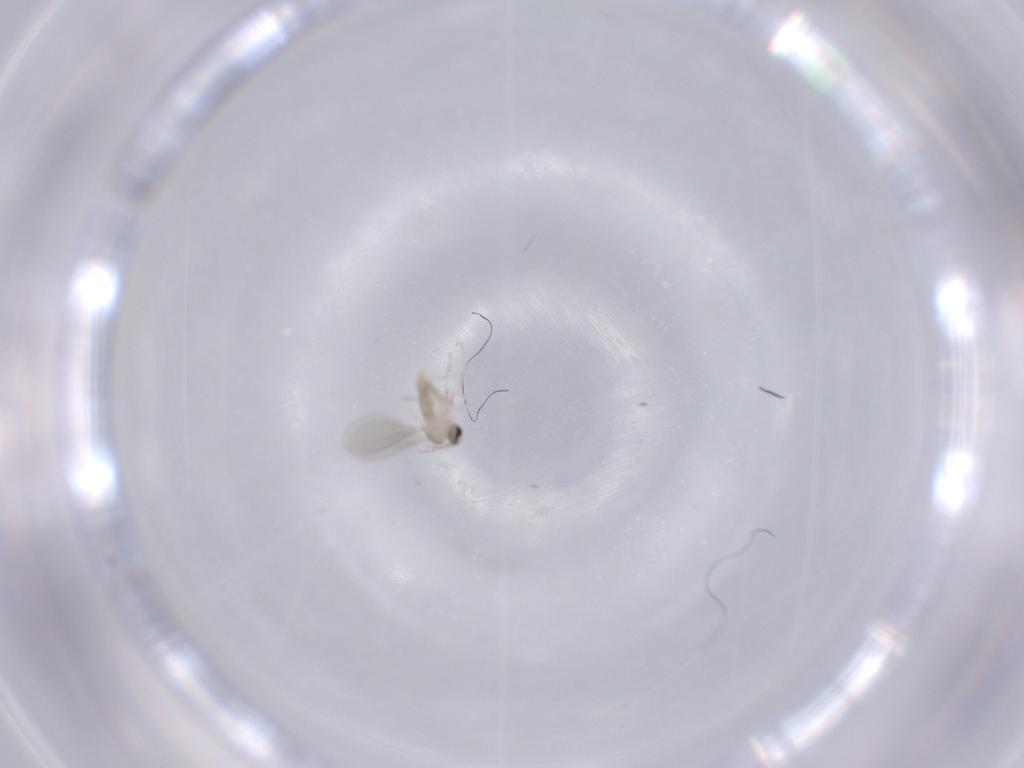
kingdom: Animalia
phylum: Arthropoda
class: Insecta
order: Diptera
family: Cecidomyiidae
